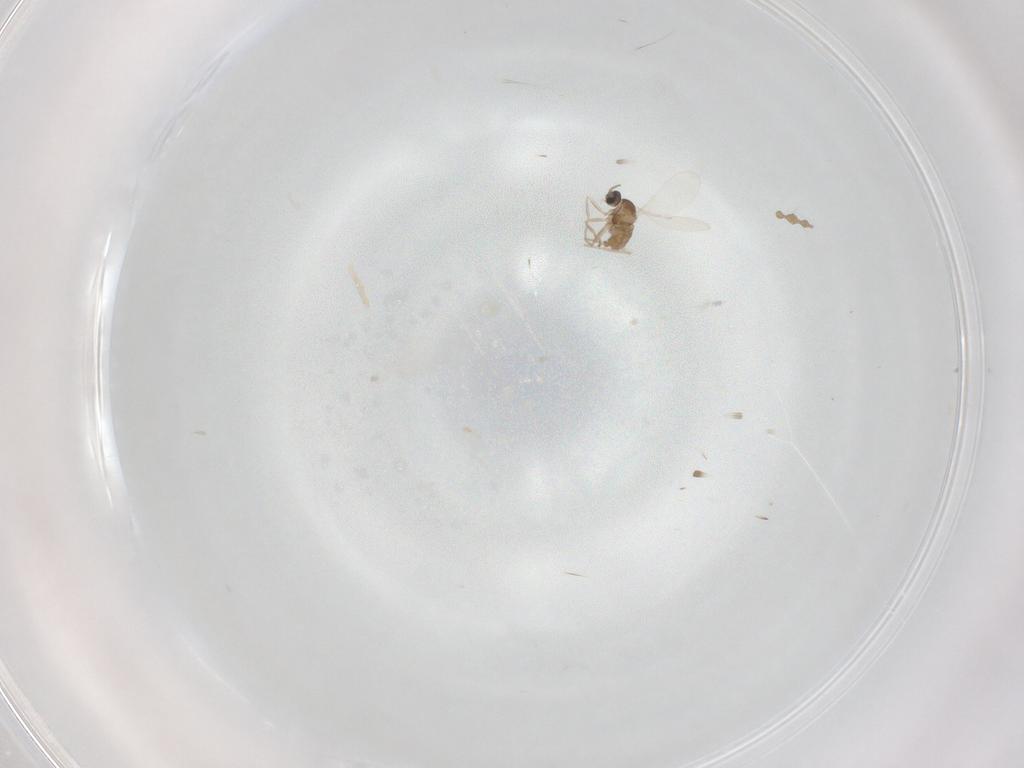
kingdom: Animalia
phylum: Arthropoda
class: Insecta
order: Diptera
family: Cecidomyiidae
